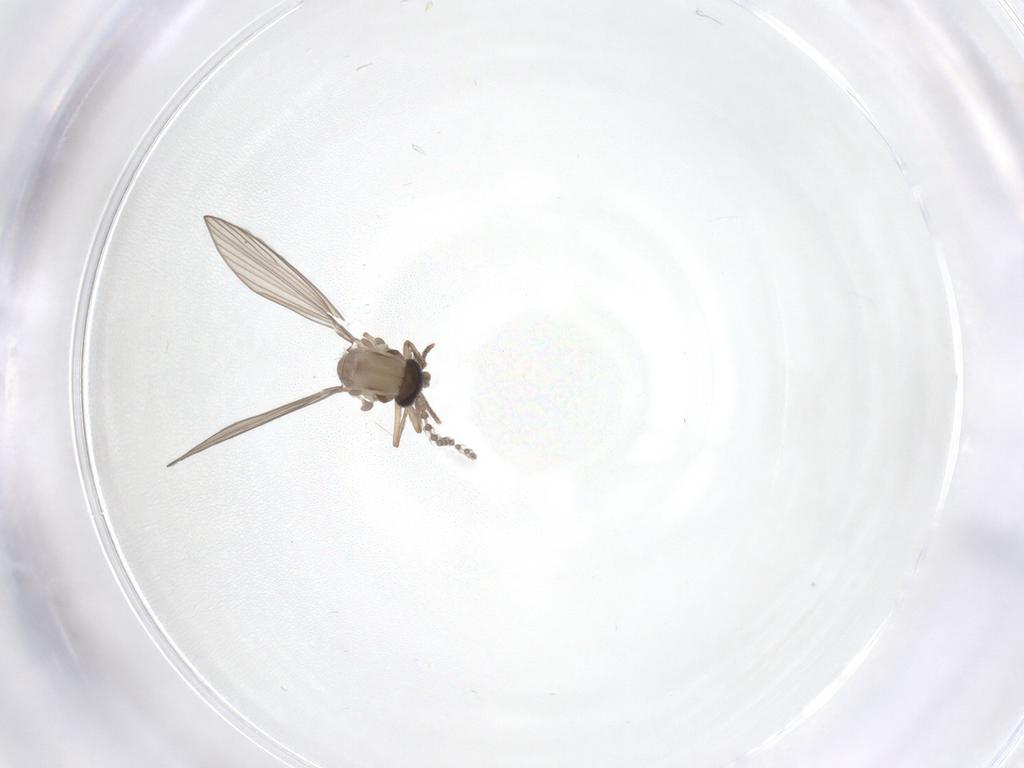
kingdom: Animalia
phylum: Arthropoda
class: Insecta
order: Diptera
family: Psychodidae
